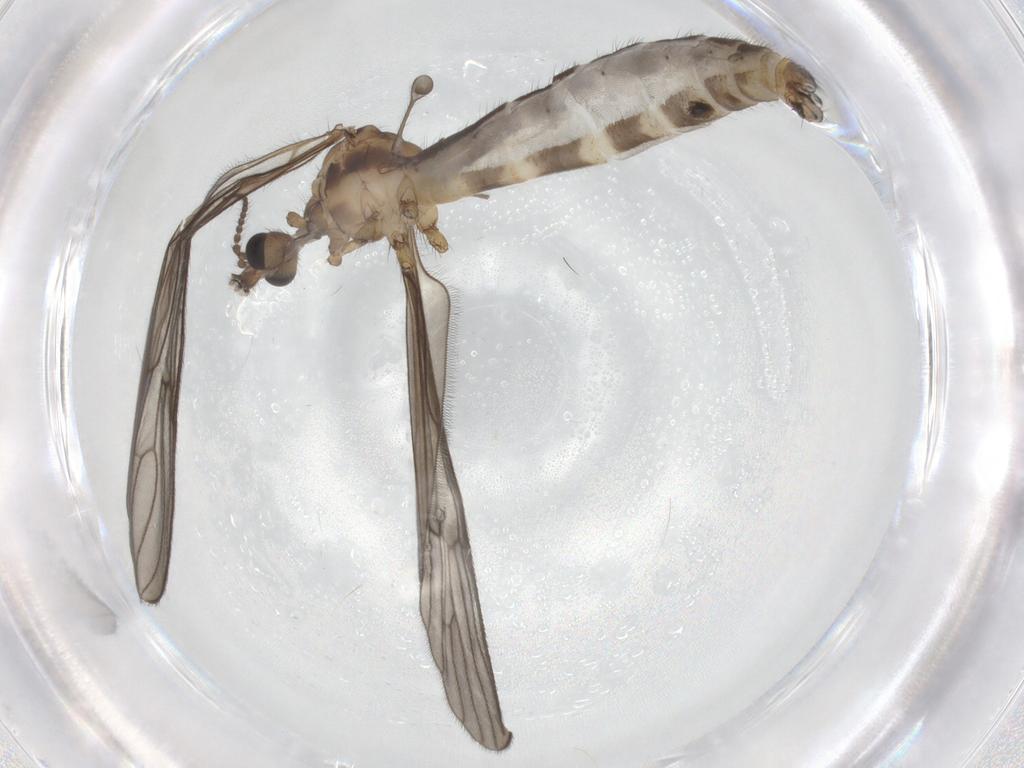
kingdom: Animalia
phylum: Arthropoda
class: Insecta
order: Diptera
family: Limoniidae
